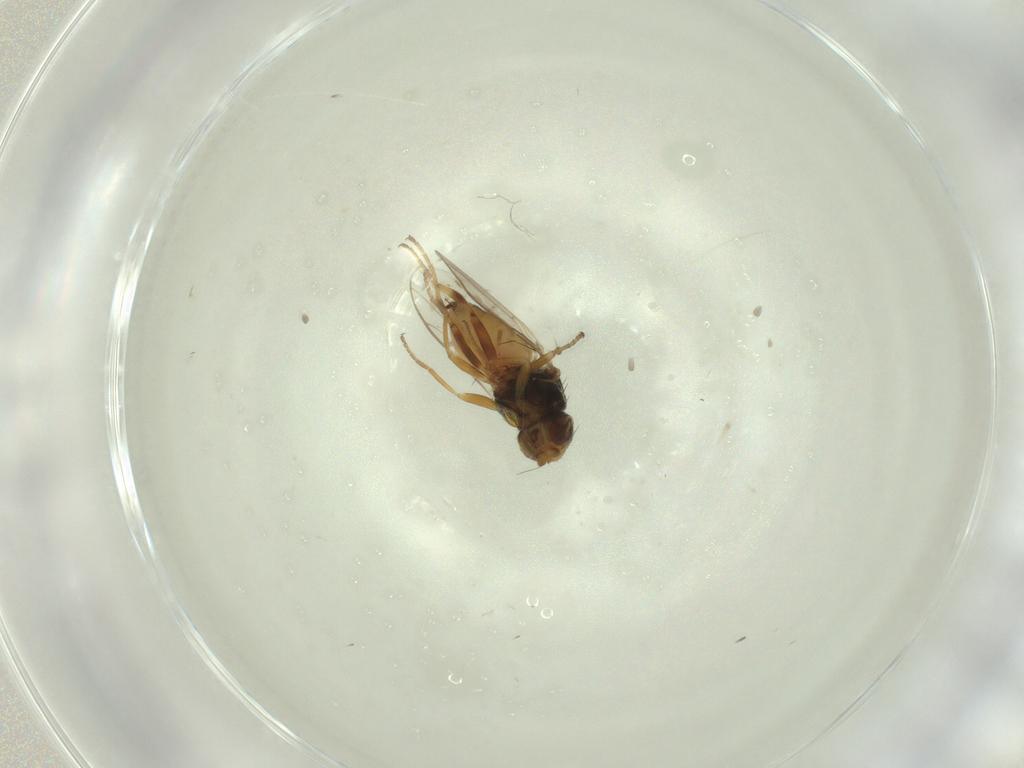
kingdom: Animalia
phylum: Arthropoda
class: Insecta
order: Diptera
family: Chloropidae
